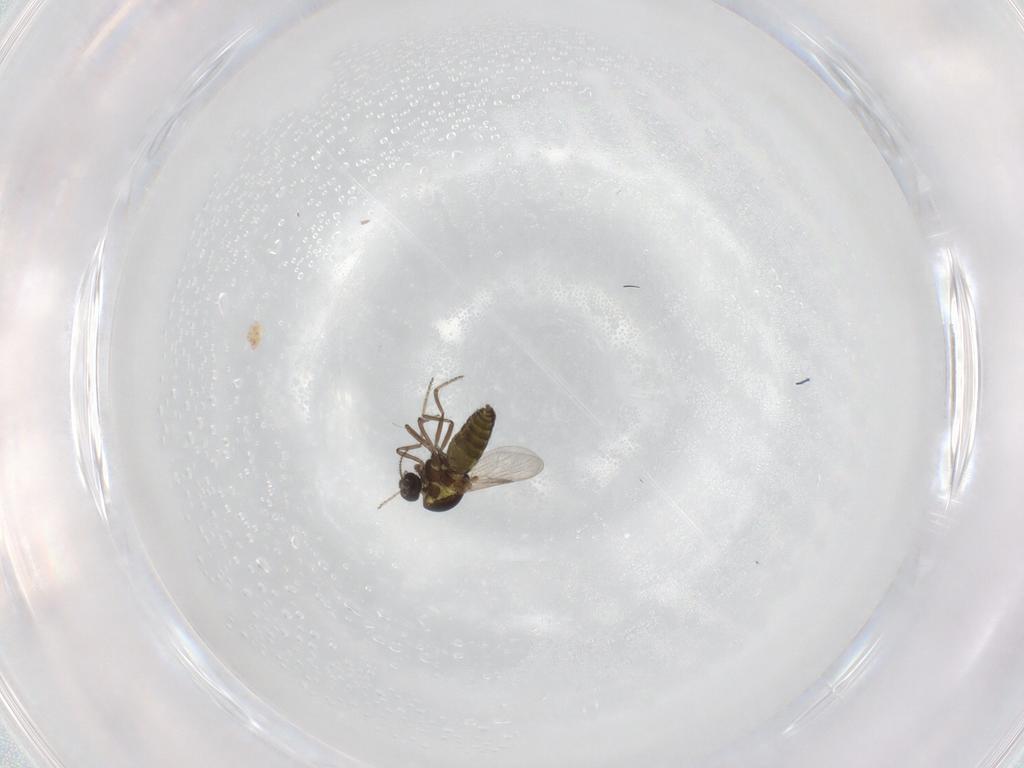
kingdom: Animalia
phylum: Arthropoda
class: Insecta
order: Diptera
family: Ceratopogonidae
